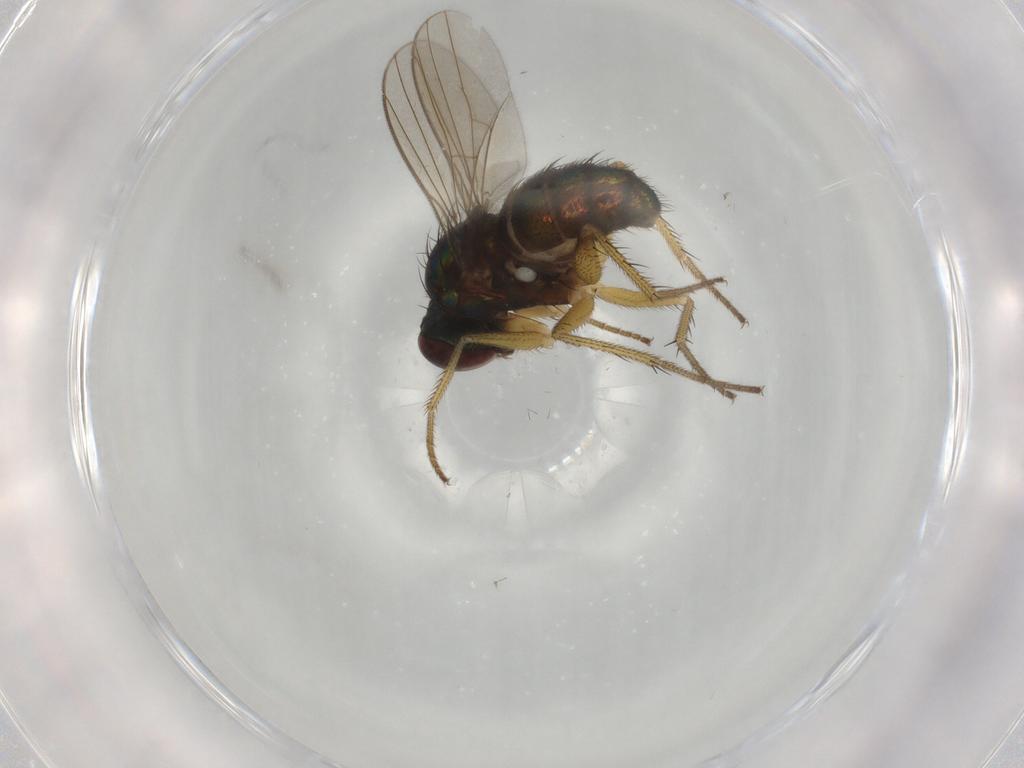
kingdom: Animalia
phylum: Arthropoda
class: Insecta
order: Diptera
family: Dolichopodidae
